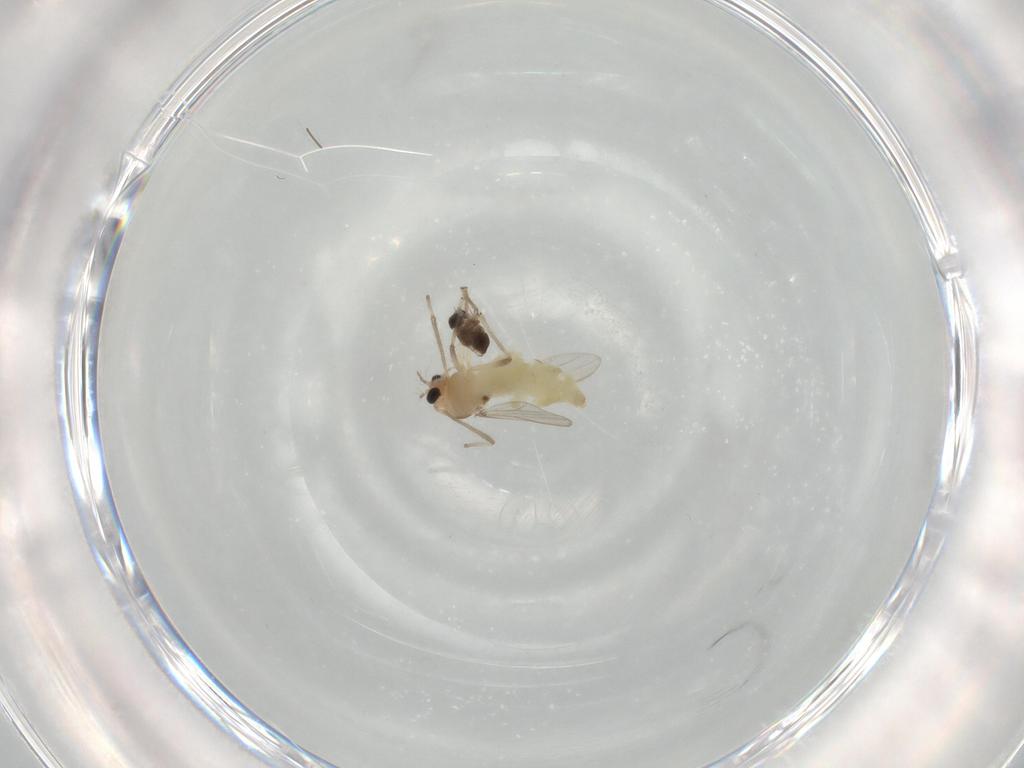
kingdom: Animalia
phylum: Arthropoda
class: Insecta
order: Diptera
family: Chironomidae
